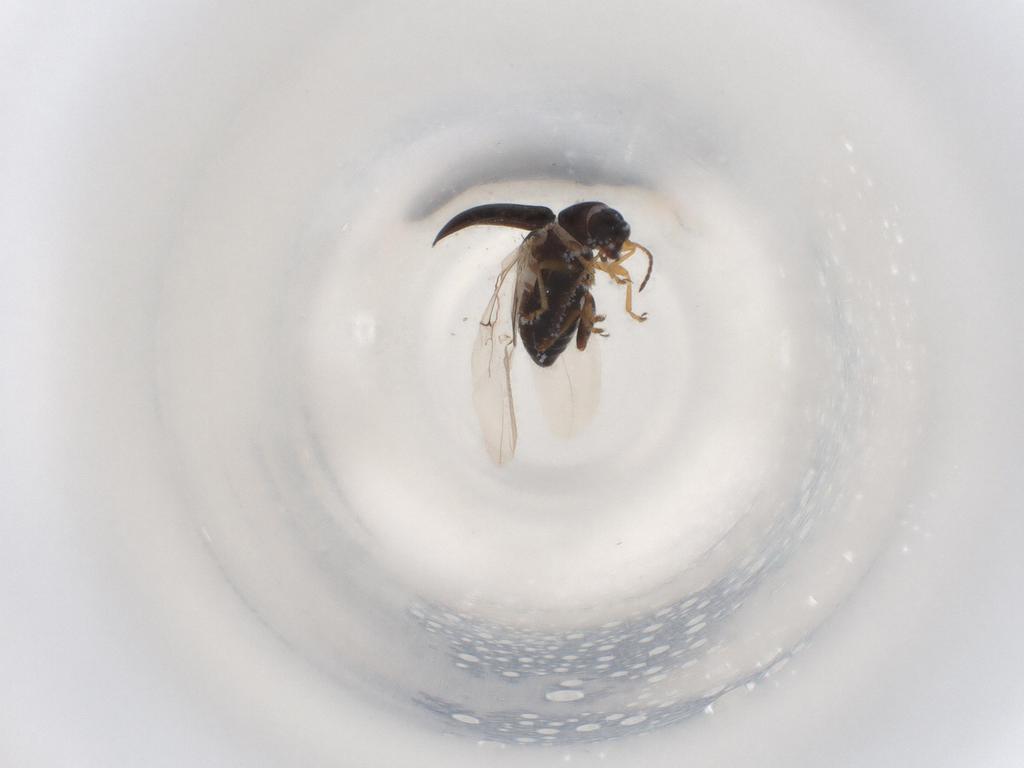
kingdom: Animalia
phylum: Arthropoda
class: Insecta
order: Coleoptera
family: Chrysomelidae
